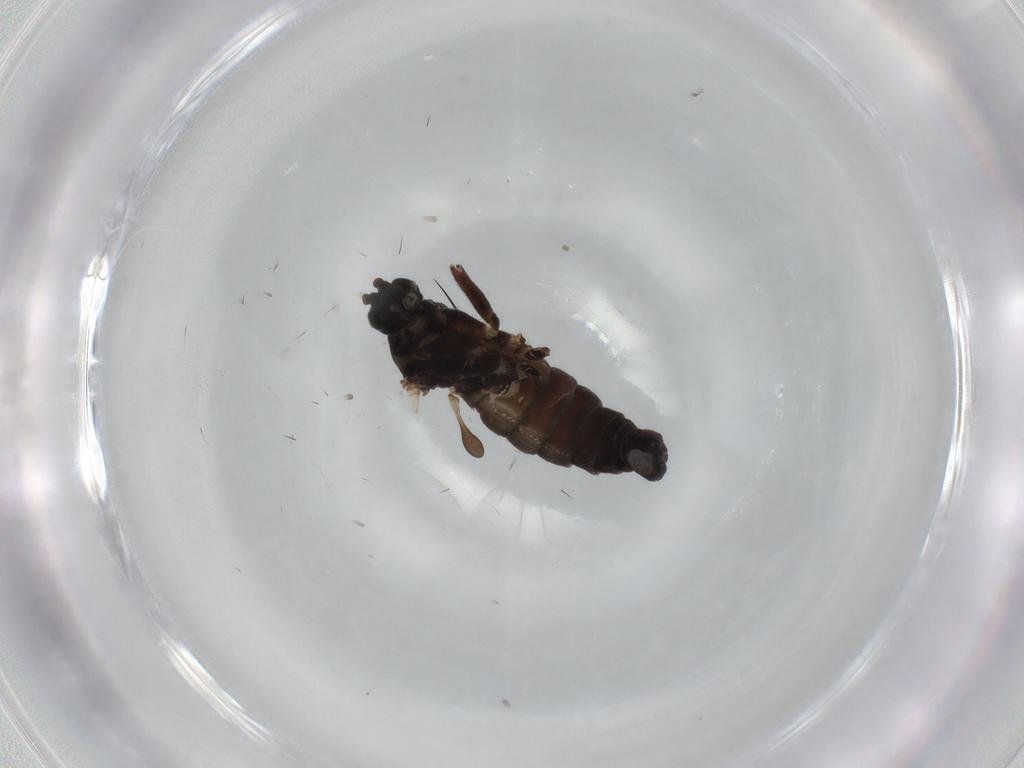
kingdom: Animalia
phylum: Arthropoda
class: Insecta
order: Diptera
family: Sciaridae
